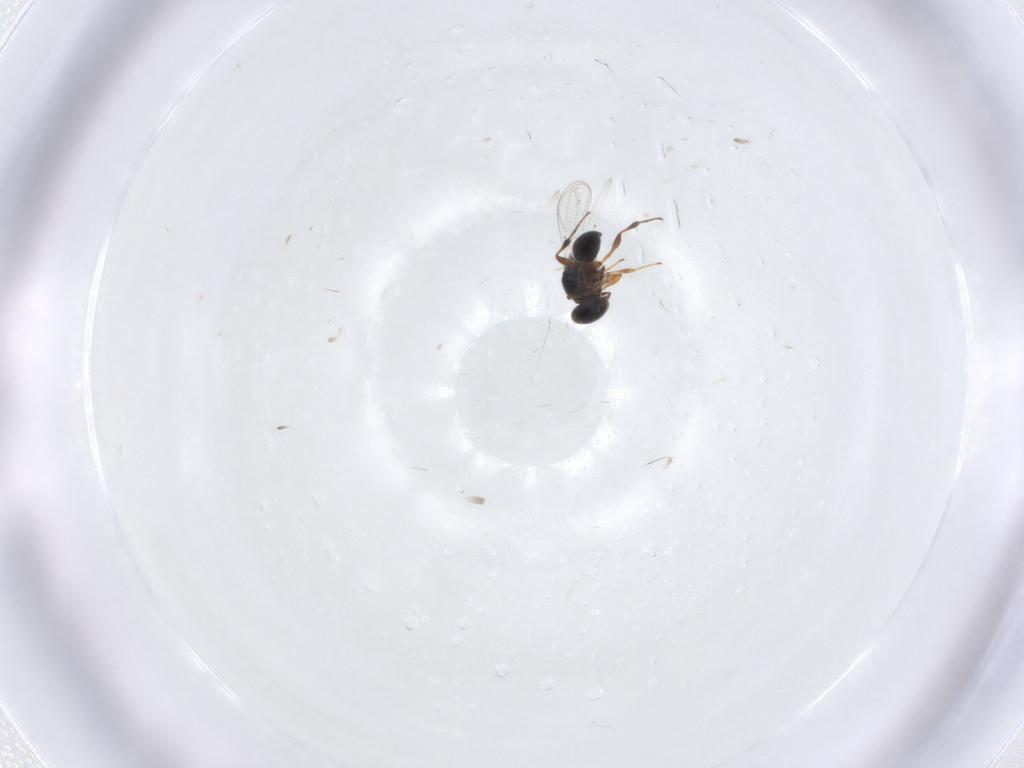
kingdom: Animalia
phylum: Arthropoda
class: Insecta
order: Hymenoptera
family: Platygastridae
